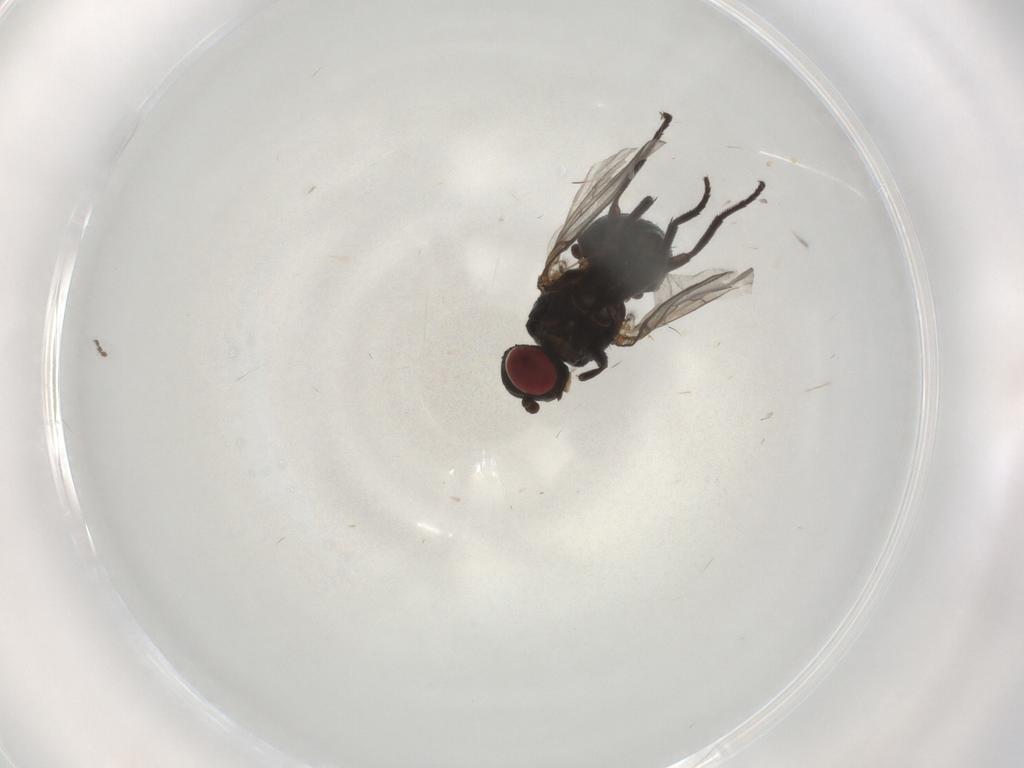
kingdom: Animalia
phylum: Arthropoda
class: Insecta
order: Diptera
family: Agromyzidae
